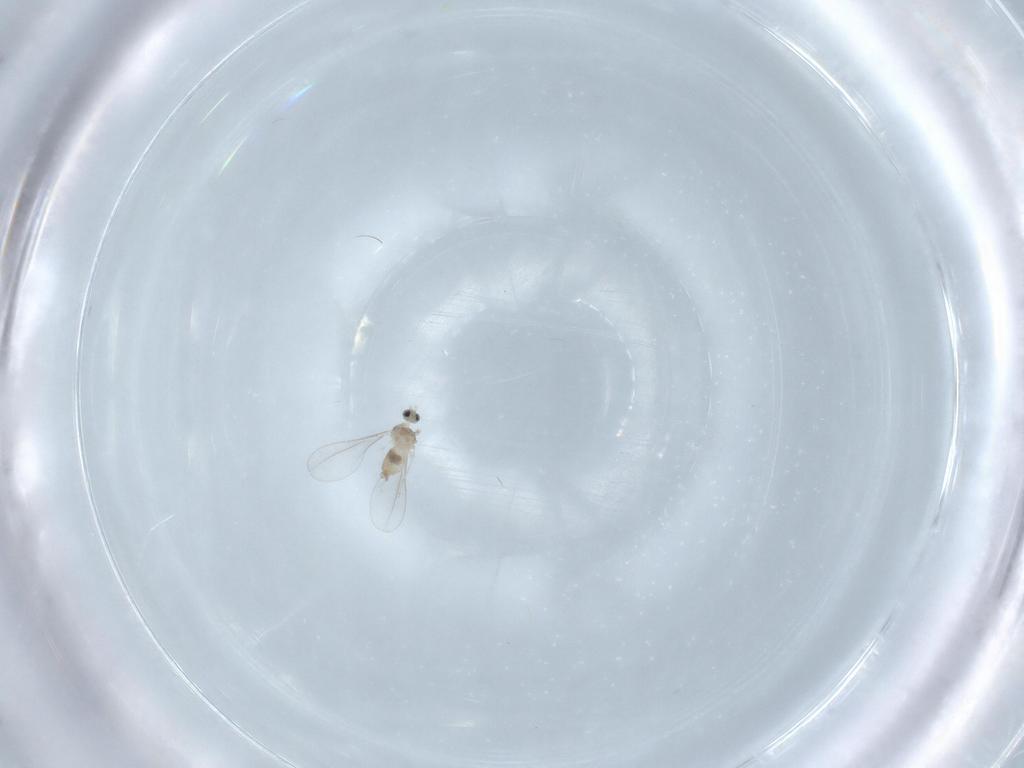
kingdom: Animalia
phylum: Arthropoda
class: Insecta
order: Diptera
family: Cecidomyiidae
